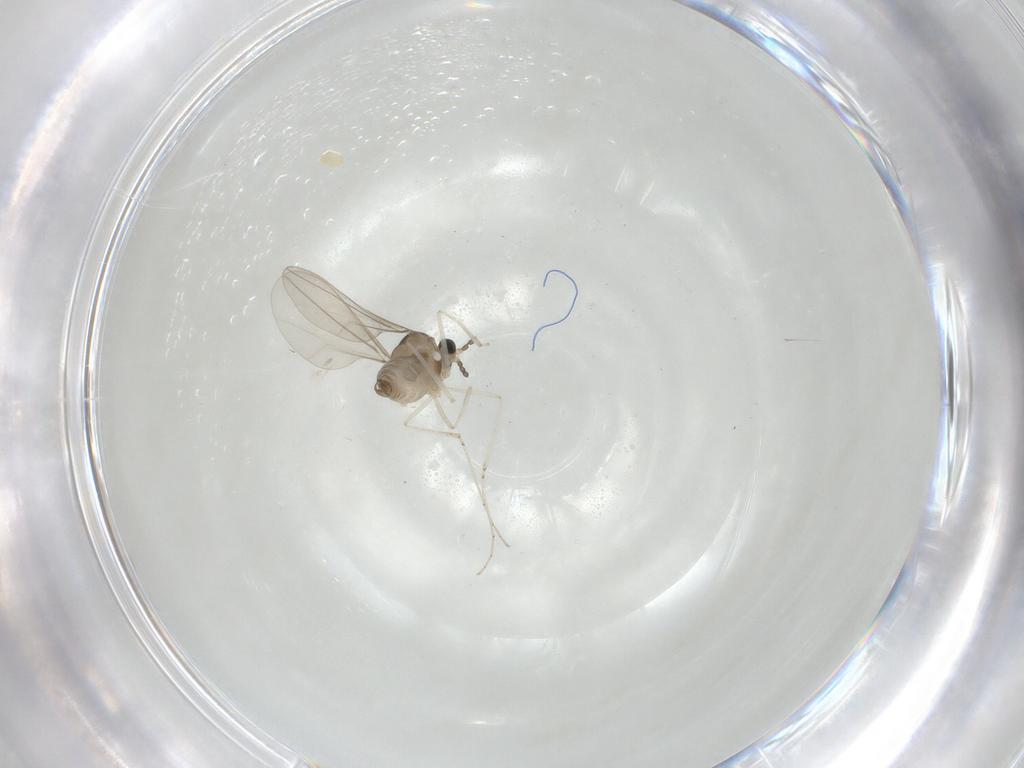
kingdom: Animalia
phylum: Arthropoda
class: Insecta
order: Diptera
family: Cecidomyiidae
